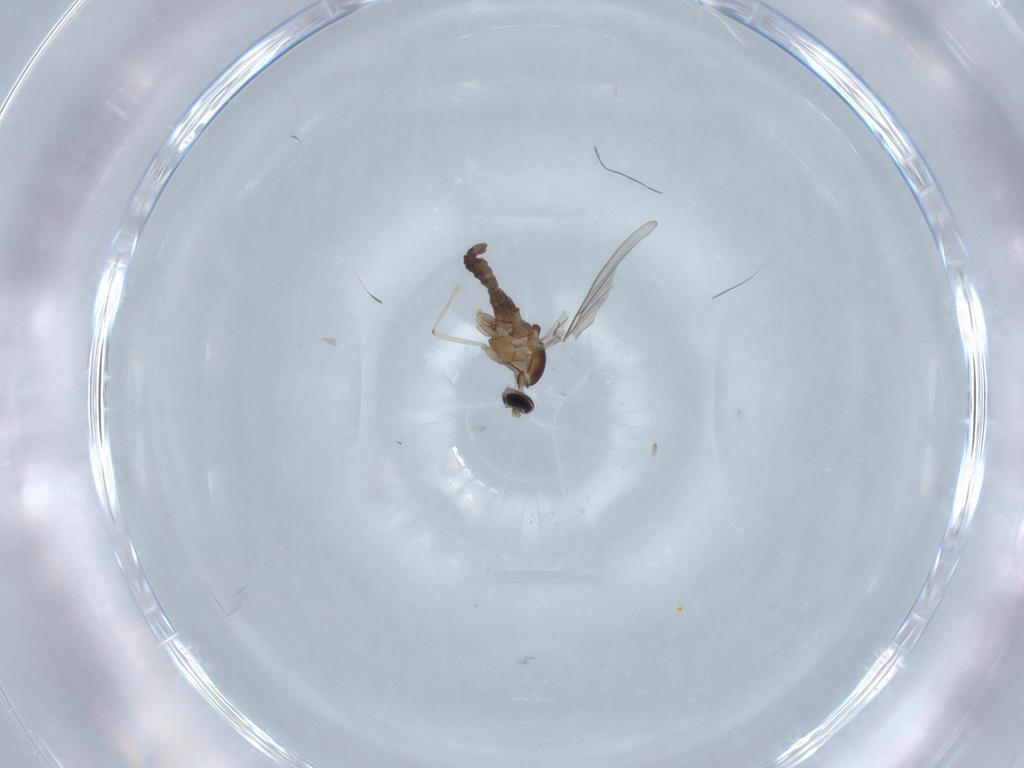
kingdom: Animalia
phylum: Arthropoda
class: Insecta
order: Diptera
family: Cecidomyiidae
